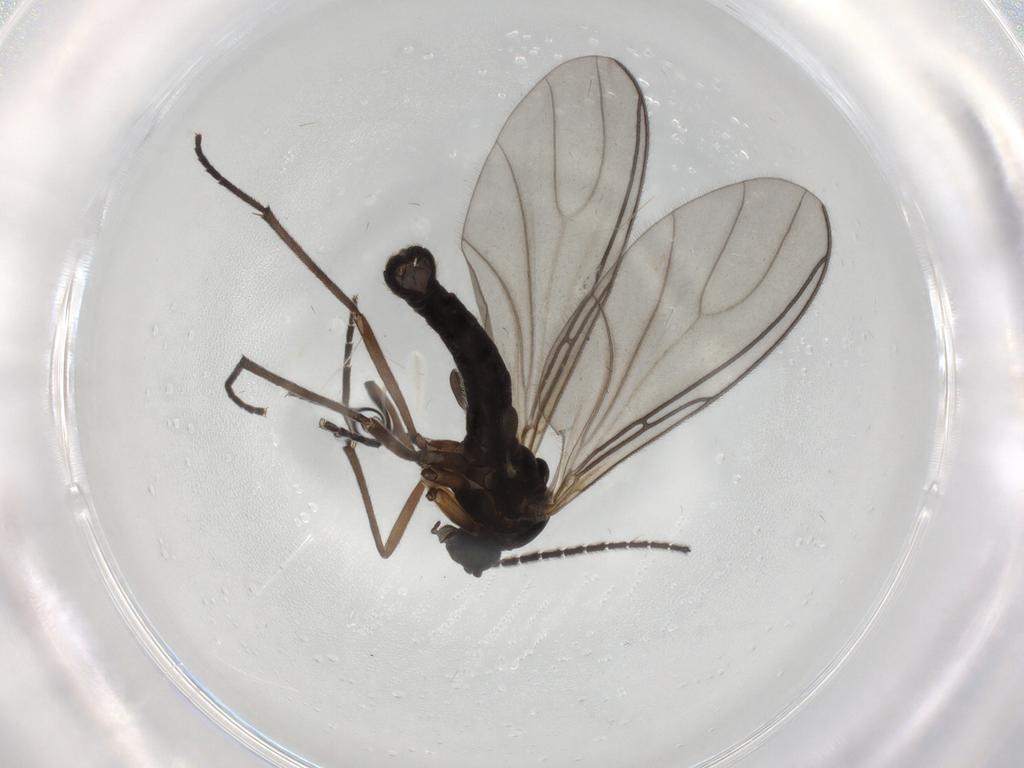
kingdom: Animalia
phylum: Arthropoda
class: Insecta
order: Diptera
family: Sciaridae
